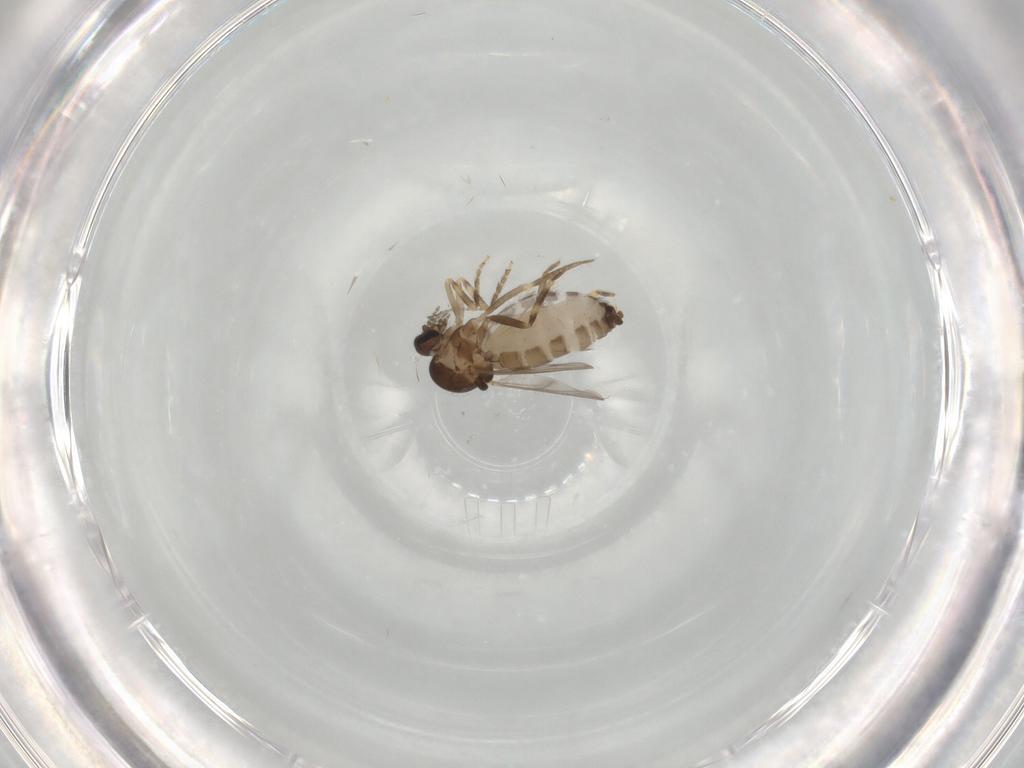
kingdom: Animalia
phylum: Arthropoda
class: Insecta
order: Diptera
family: Ceratopogonidae
